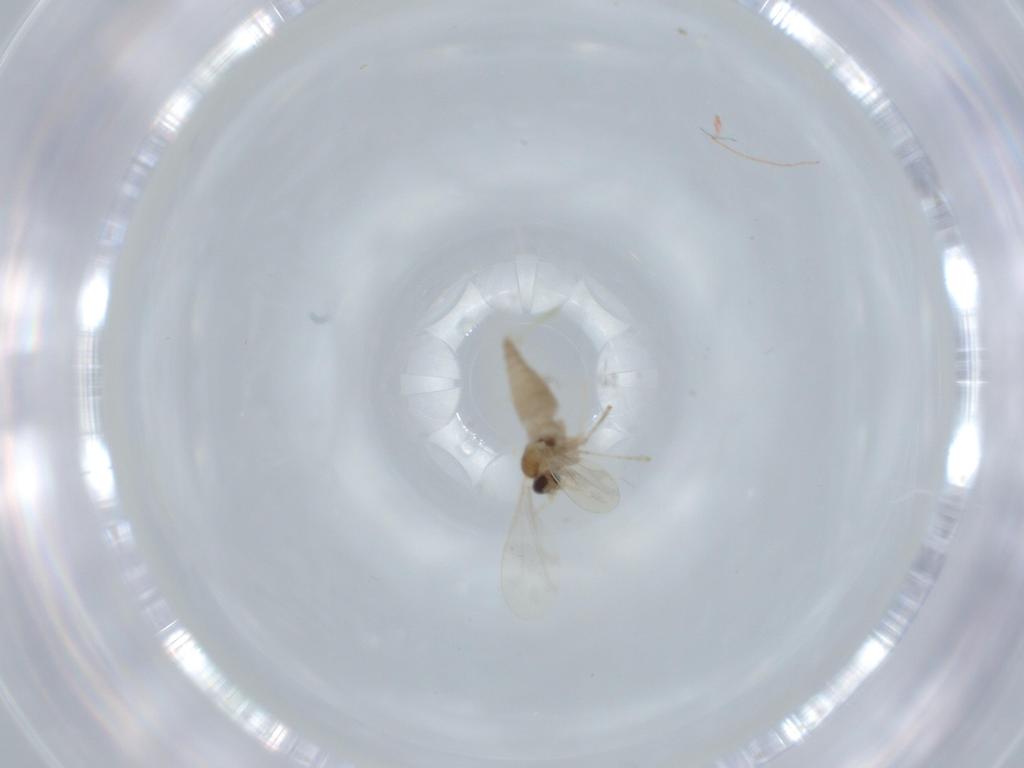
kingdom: Animalia
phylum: Arthropoda
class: Insecta
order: Diptera
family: Cecidomyiidae
